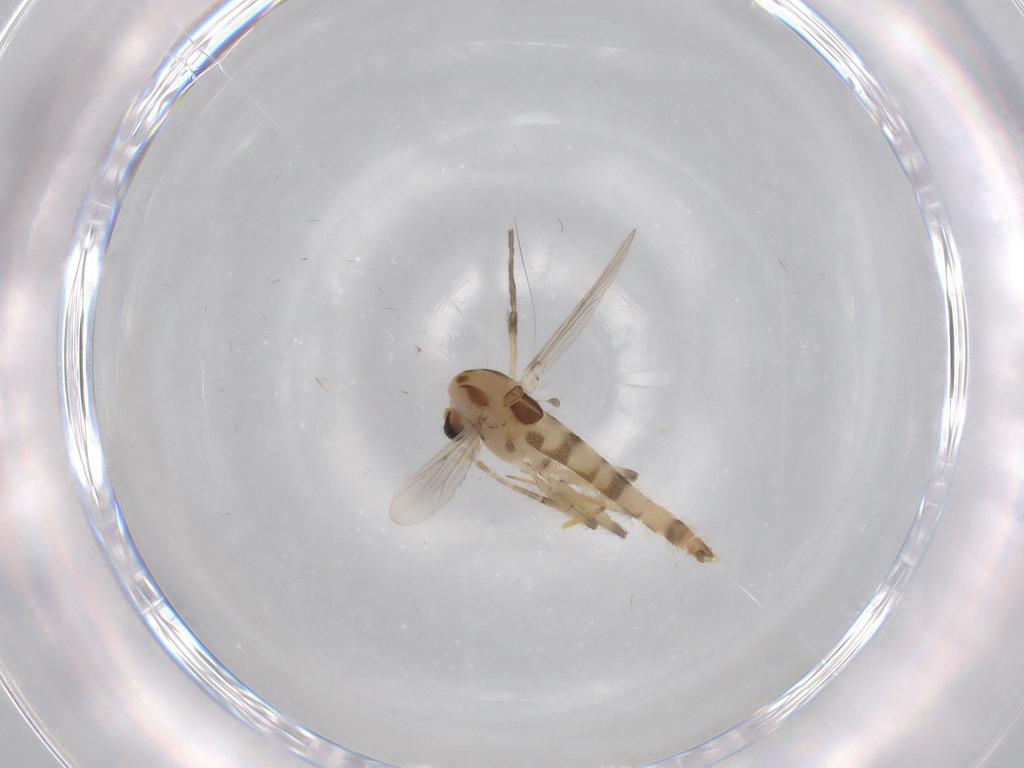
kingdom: Animalia
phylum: Arthropoda
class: Insecta
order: Diptera
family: Chironomidae
